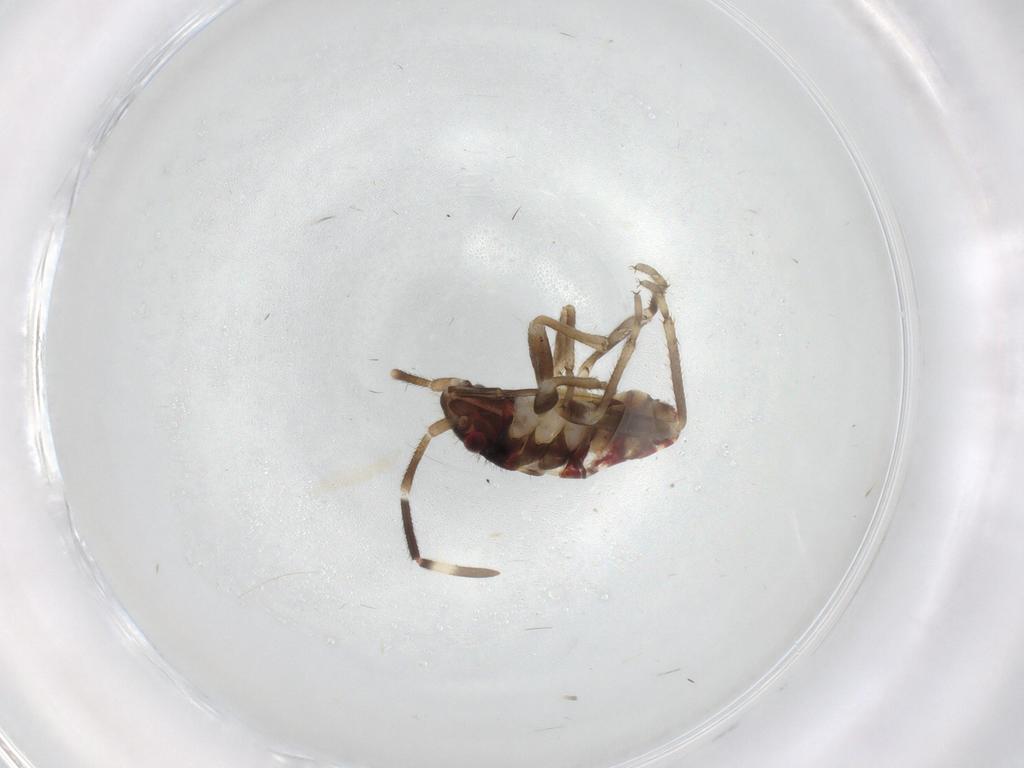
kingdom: Animalia
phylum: Arthropoda
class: Insecta
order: Hemiptera
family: Rhyparochromidae
